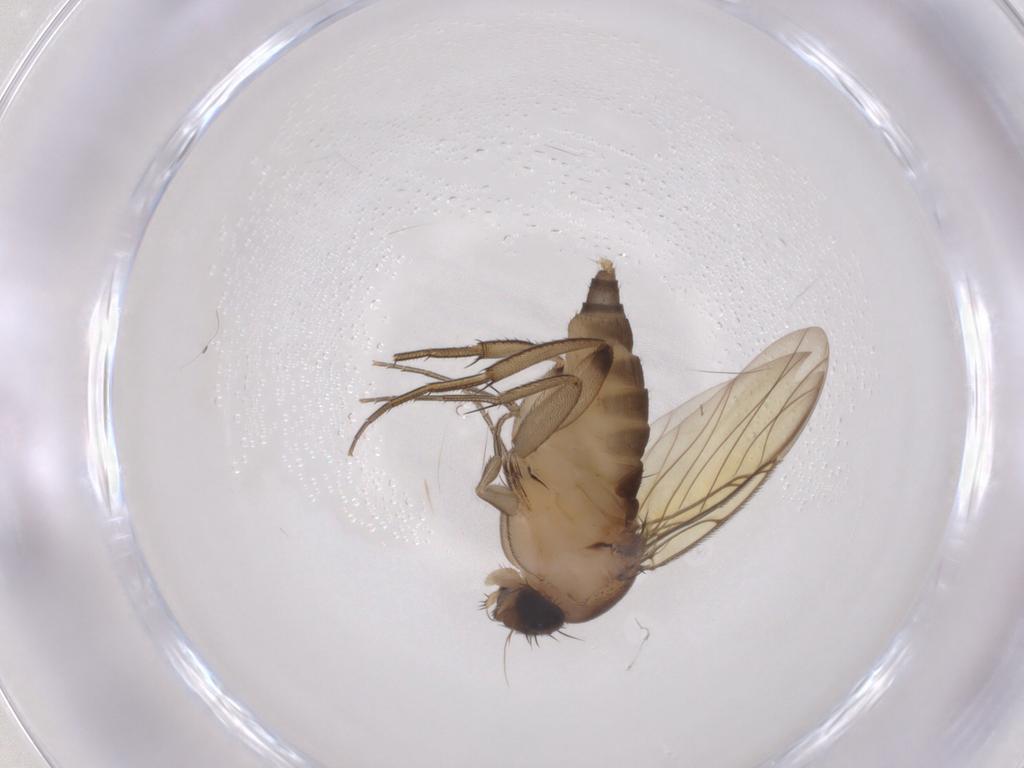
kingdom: Animalia
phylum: Arthropoda
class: Insecta
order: Diptera
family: Phoridae
